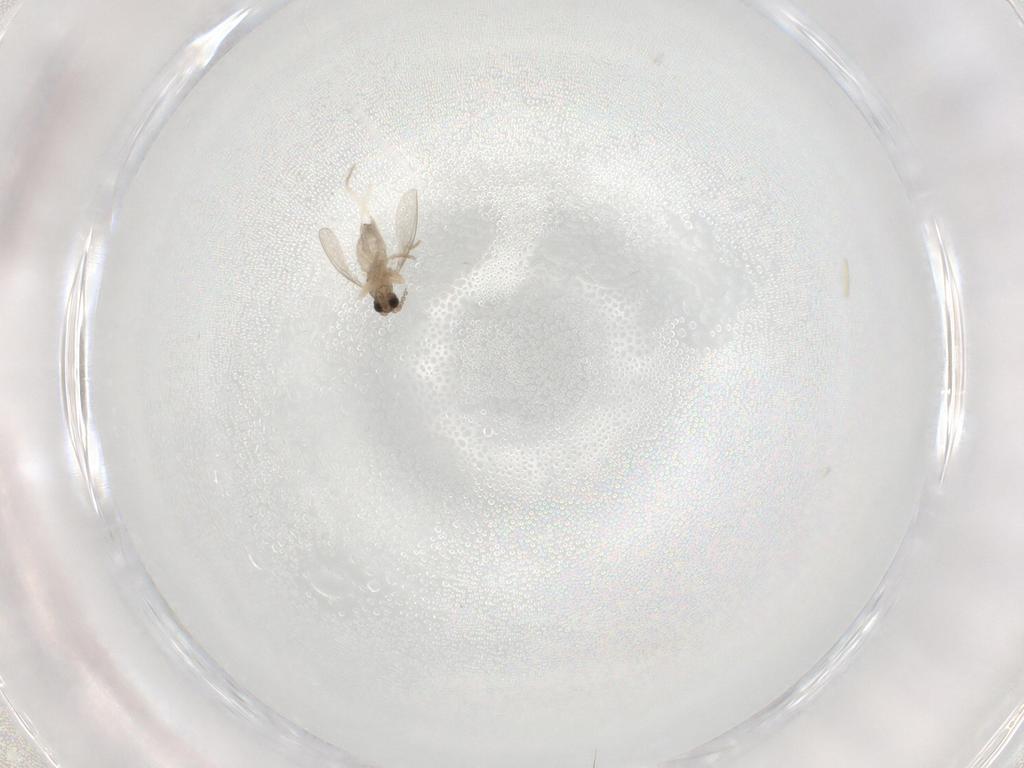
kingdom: Animalia
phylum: Arthropoda
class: Insecta
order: Diptera
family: Cecidomyiidae
